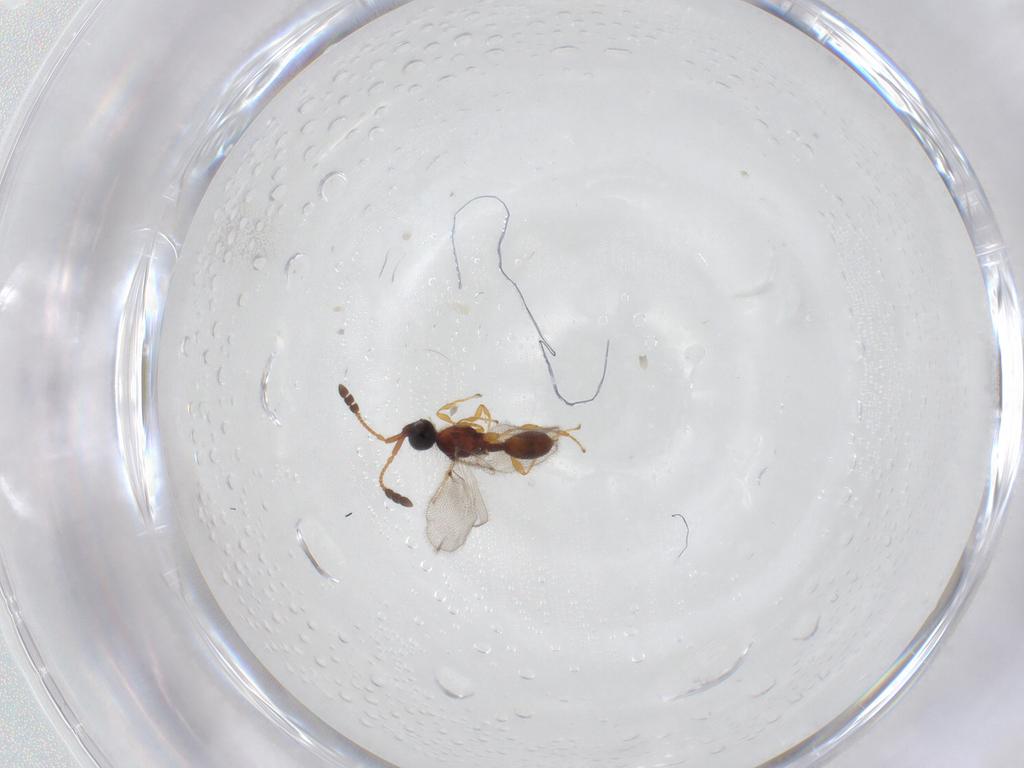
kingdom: Animalia
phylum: Arthropoda
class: Insecta
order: Hymenoptera
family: Diapriidae
